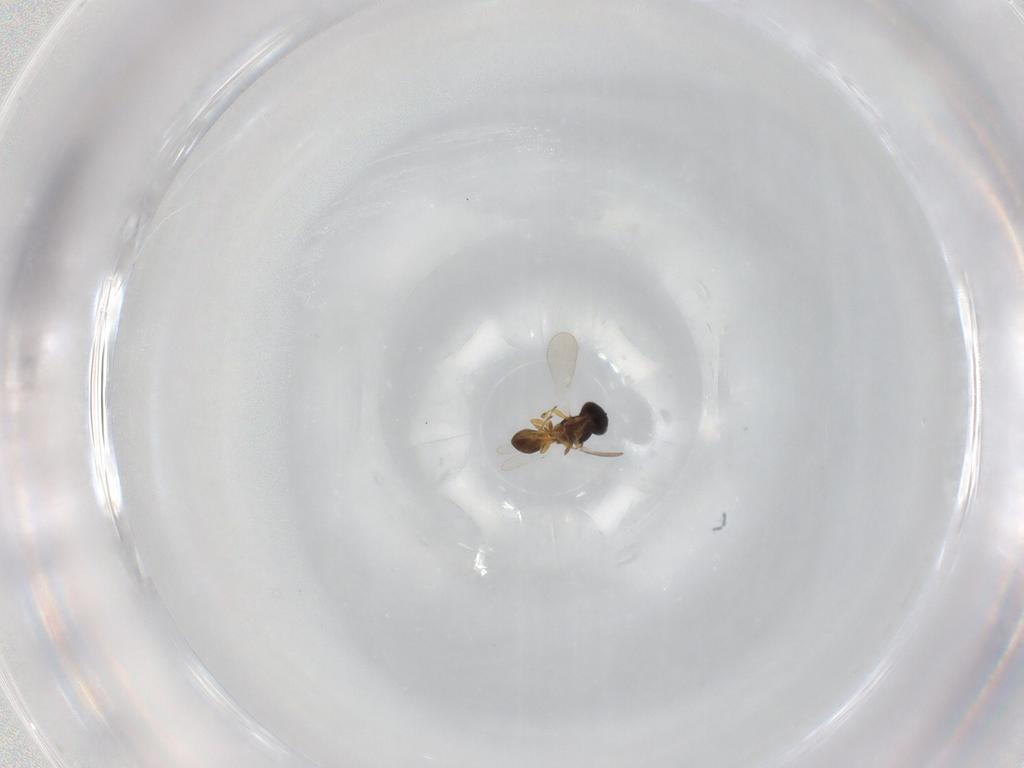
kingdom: Animalia
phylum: Arthropoda
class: Insecta
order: Hymenoptera
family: Platygastridae
